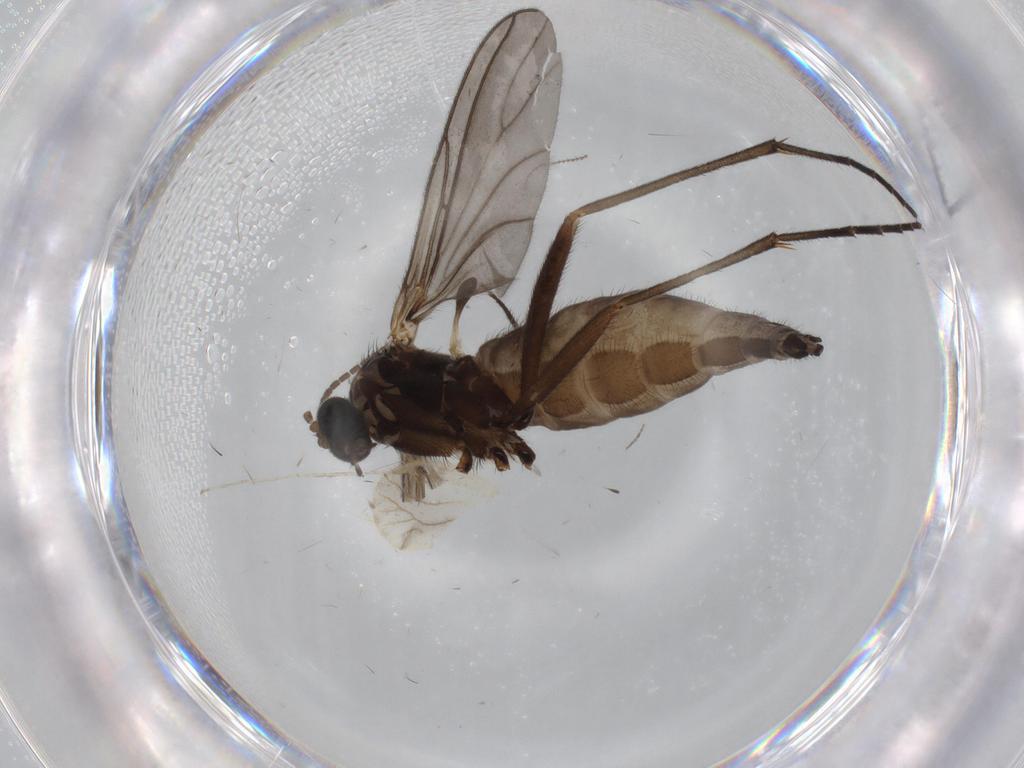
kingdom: Animalia
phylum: Arthropoda
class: Insecta
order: Diptera
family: Sciaridae
